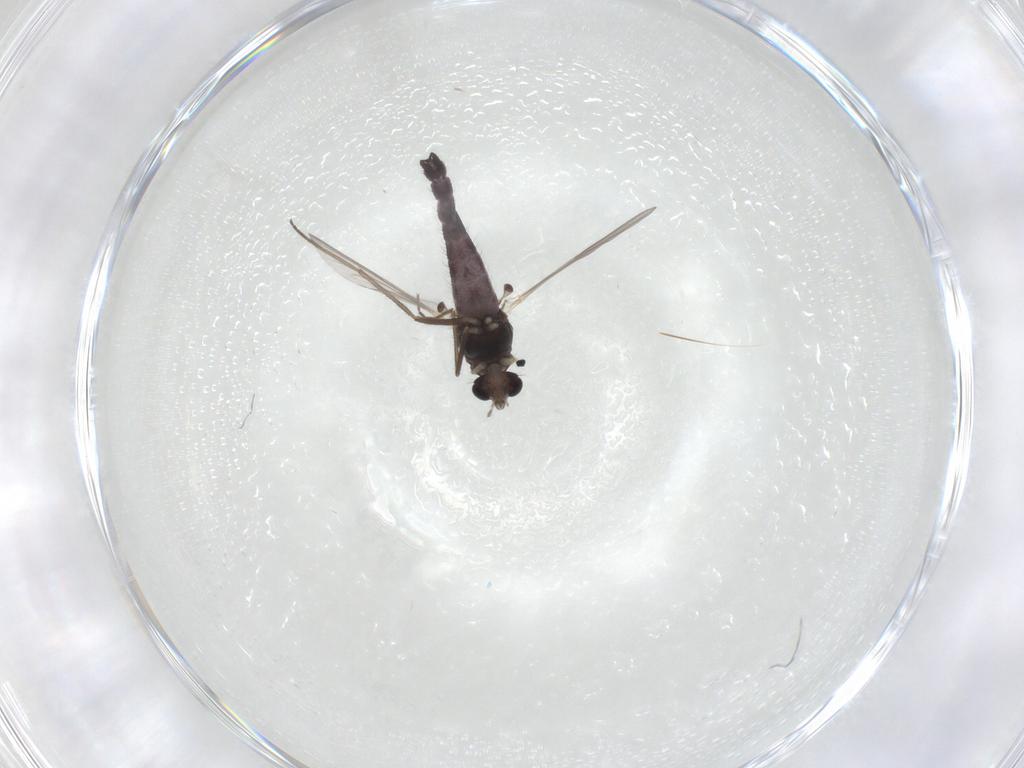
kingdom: Animalia
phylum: Arthropoda
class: Insecta
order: Diptera
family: Chironomidae
